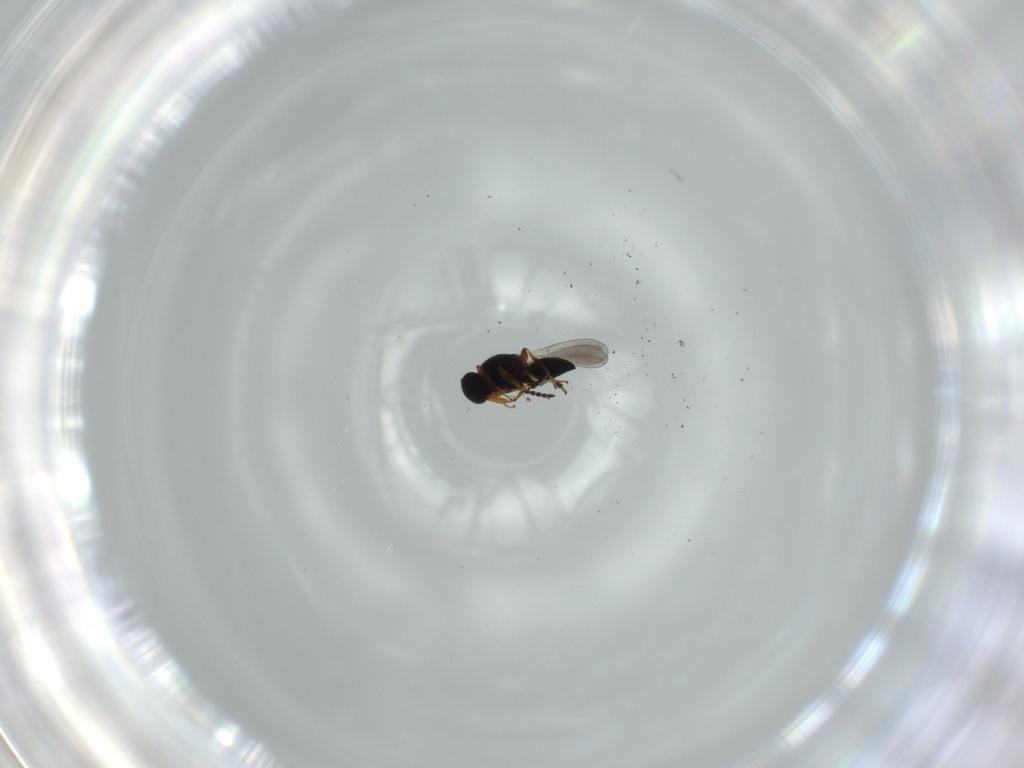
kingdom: Animalia
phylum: Arthropoda
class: Insecta
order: Hymenoptera
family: Platygastridae
